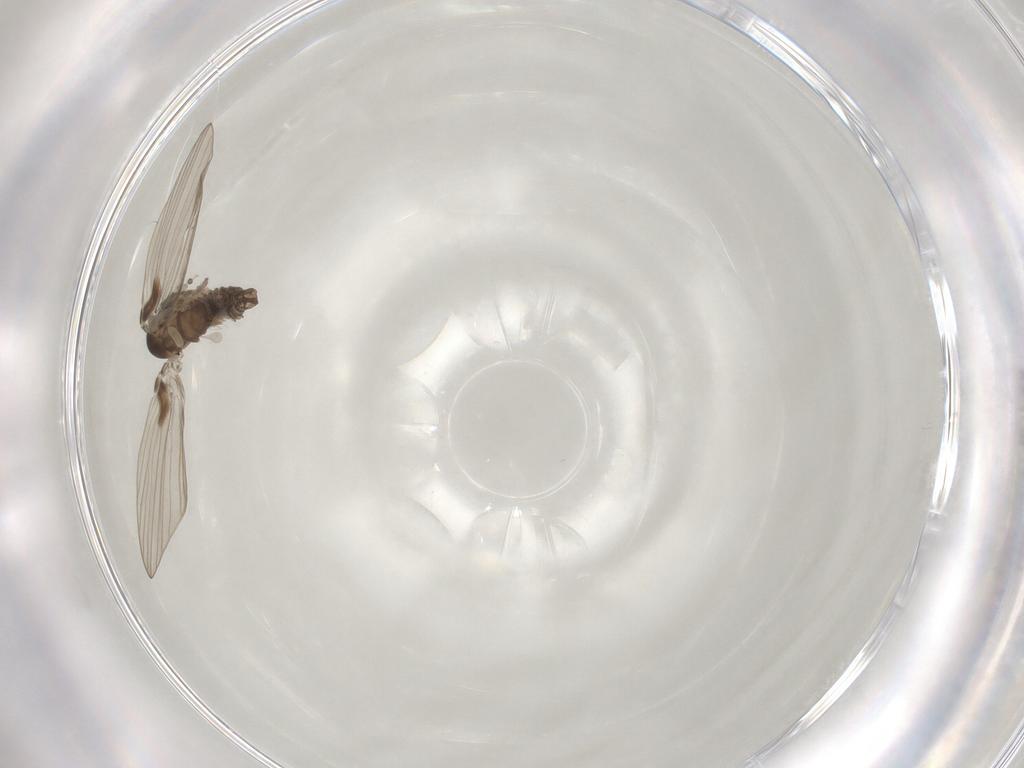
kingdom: Animalia
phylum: Arthropoda
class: Insecta
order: Diptera
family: Psychodidae
